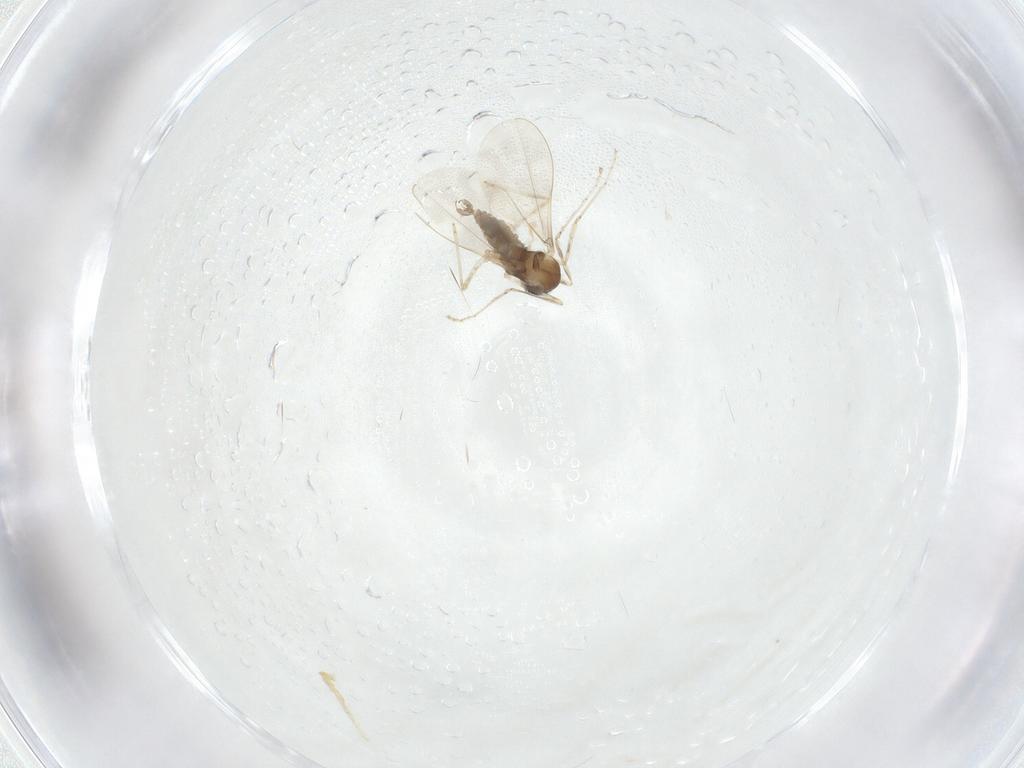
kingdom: Animalia
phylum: Arthropoda
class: Insecta
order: Diptera
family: Cecidomyiidae
